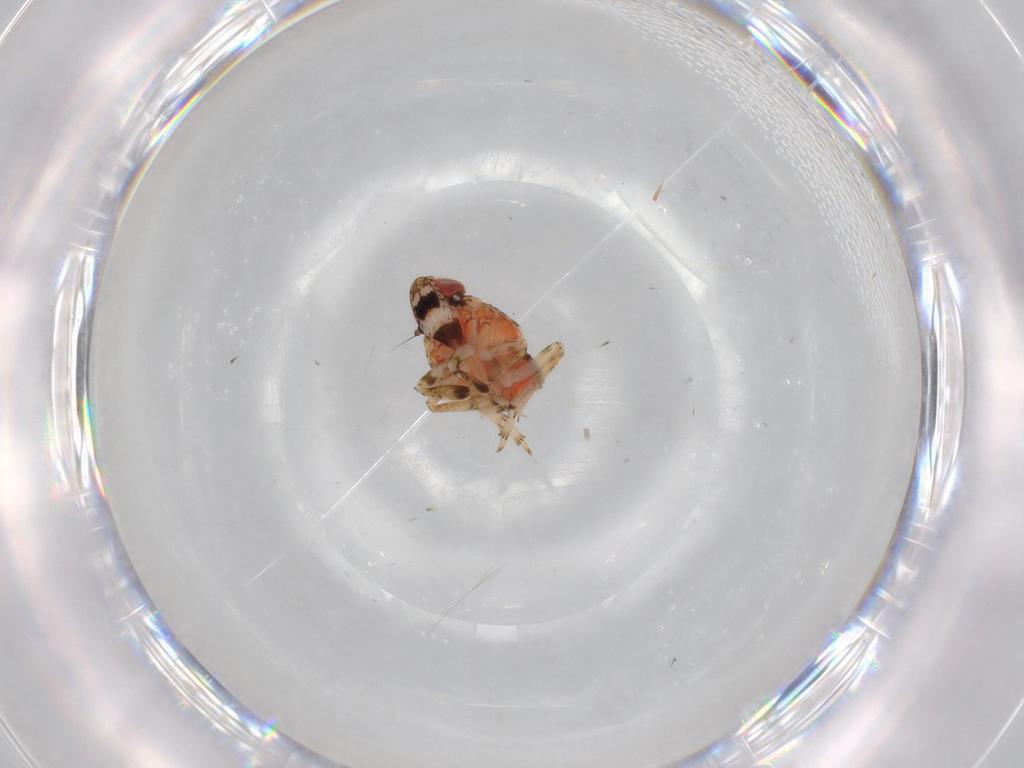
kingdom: Animalia
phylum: Arthropoda
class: Insecta
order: Hemiptera
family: Issidae
